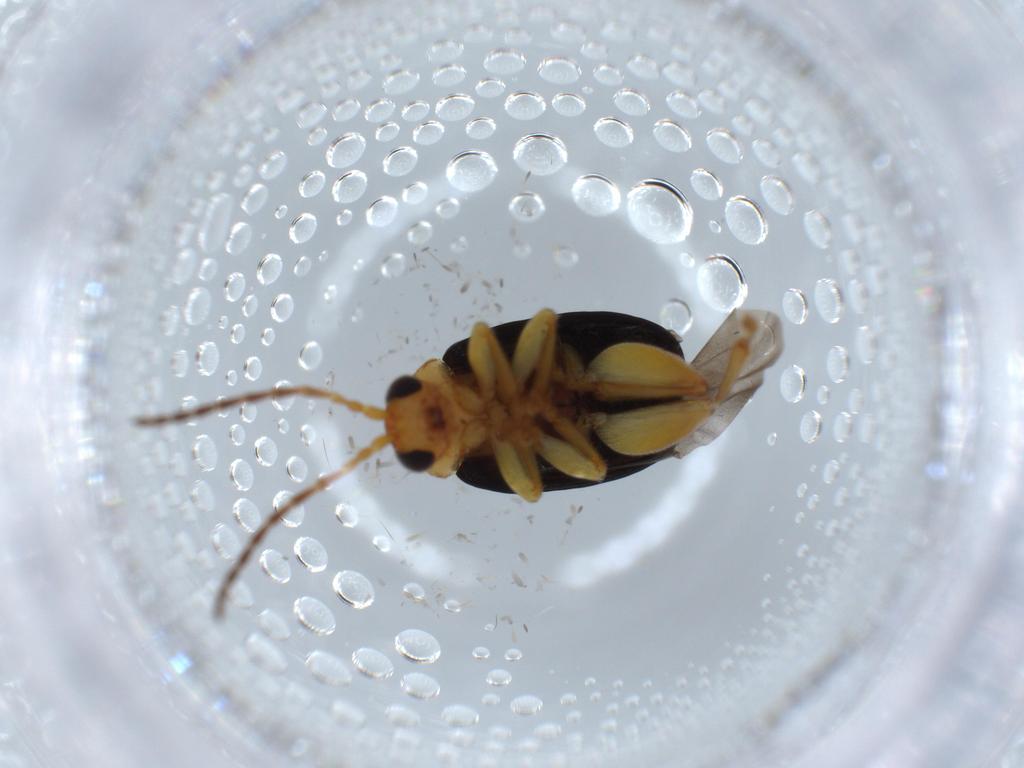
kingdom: Animalia
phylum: Arthropoda
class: Insecta
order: Coleoptera
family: Chrysomelidae
